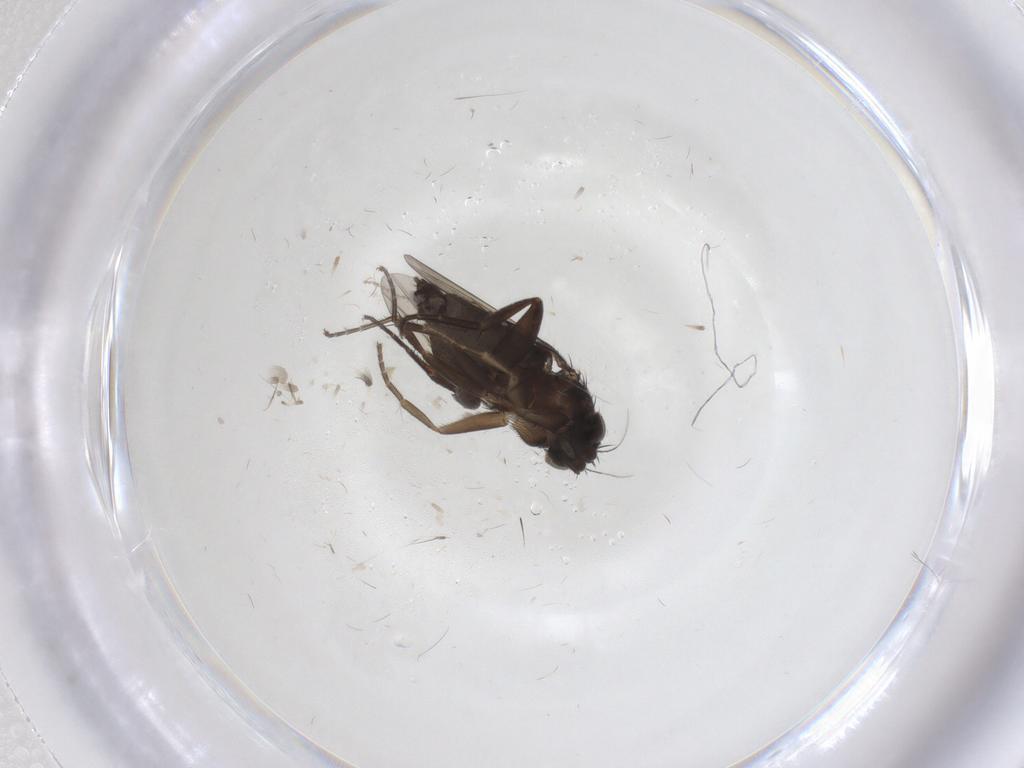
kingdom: Animalia
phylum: Arthropoda
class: Insecta
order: Diptera
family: Phoridae
